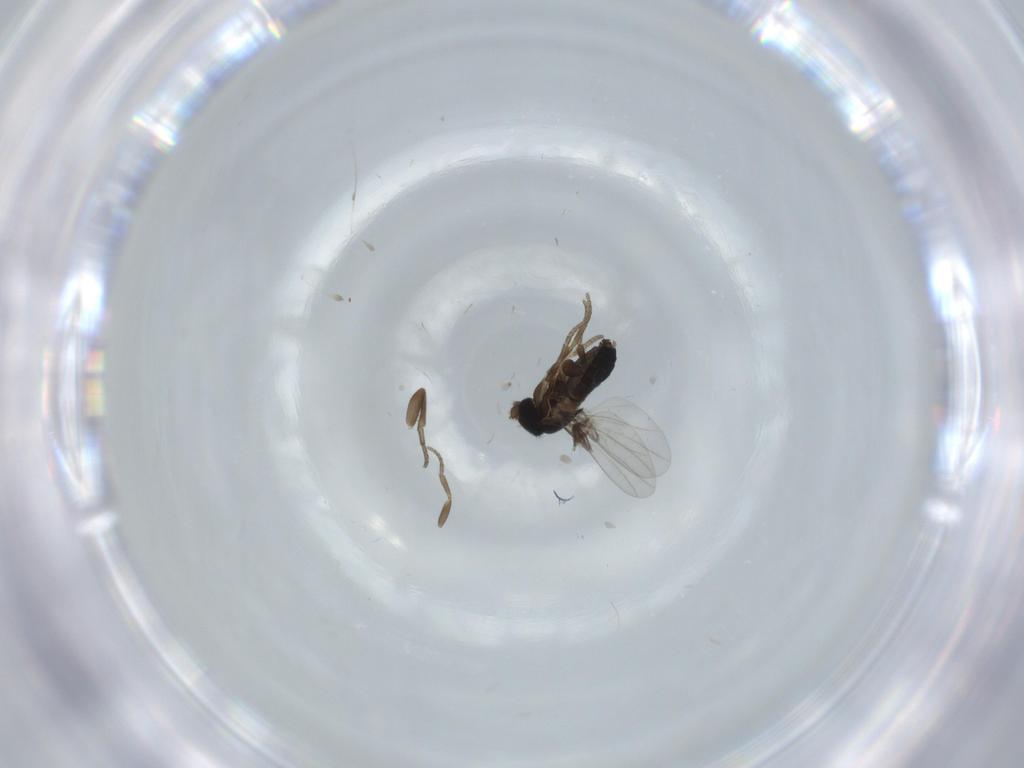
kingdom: Animalia
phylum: Arthropoda
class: Insecta
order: Diptera
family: Phoridae
